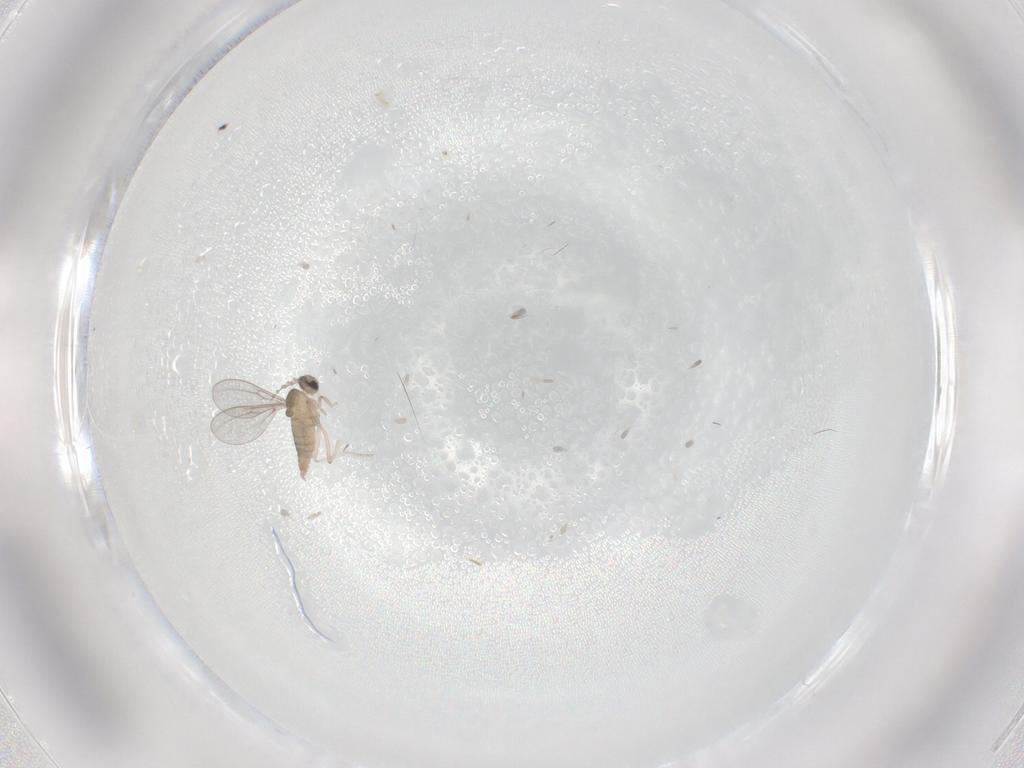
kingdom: Animalia
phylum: Arthropoda
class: Insecta
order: Diptera
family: Cecidomyiidae
